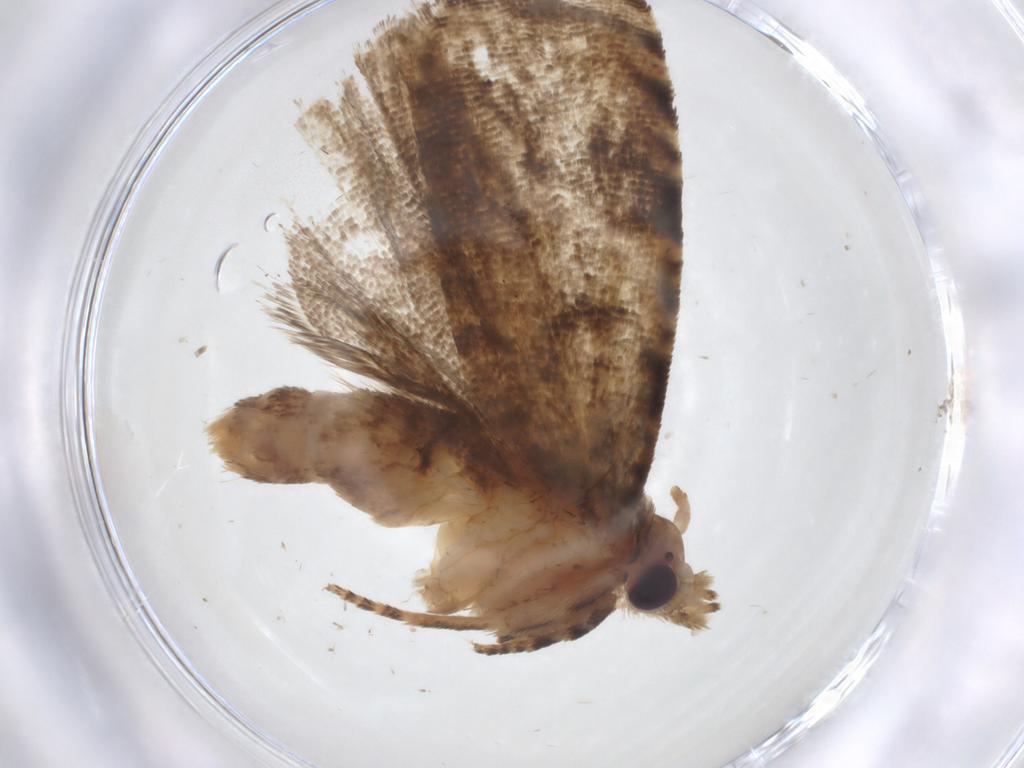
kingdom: Animalia
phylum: Arthropoda
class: Insecta
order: Lepidoptera
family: Tortricidae
